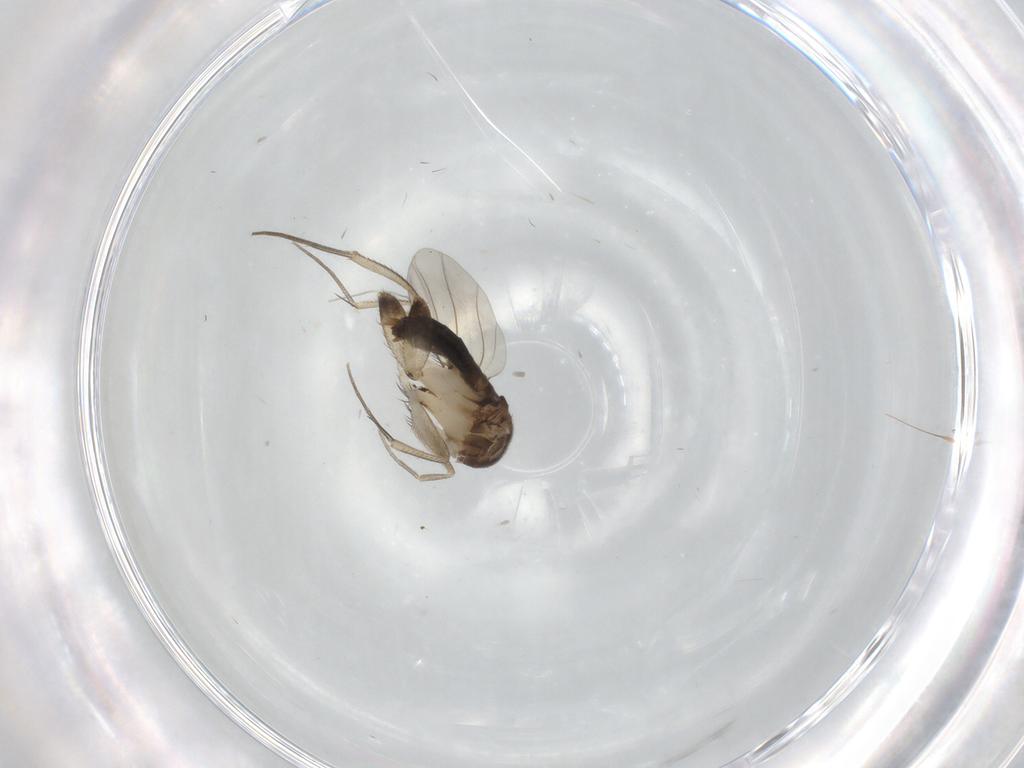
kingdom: Animalia
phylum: Arthropoda
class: Insecta
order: Diptera
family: Phoridae
